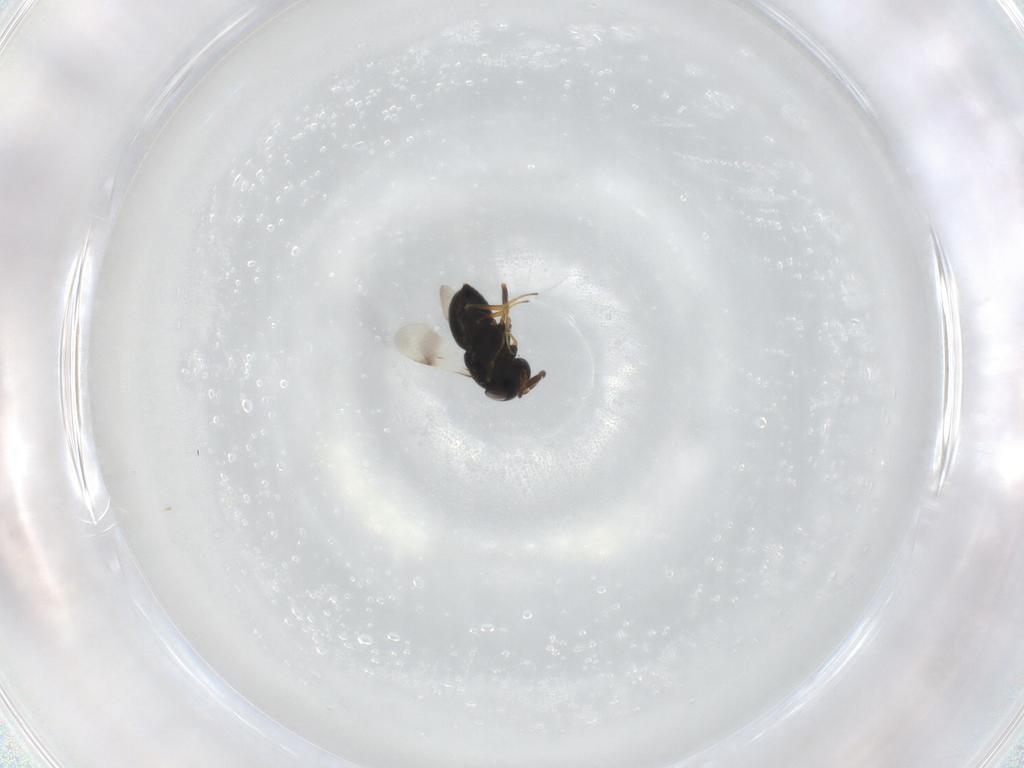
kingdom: Animalia
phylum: Arthropoda
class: Insecta
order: Hymenoptera
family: Scelionidae
